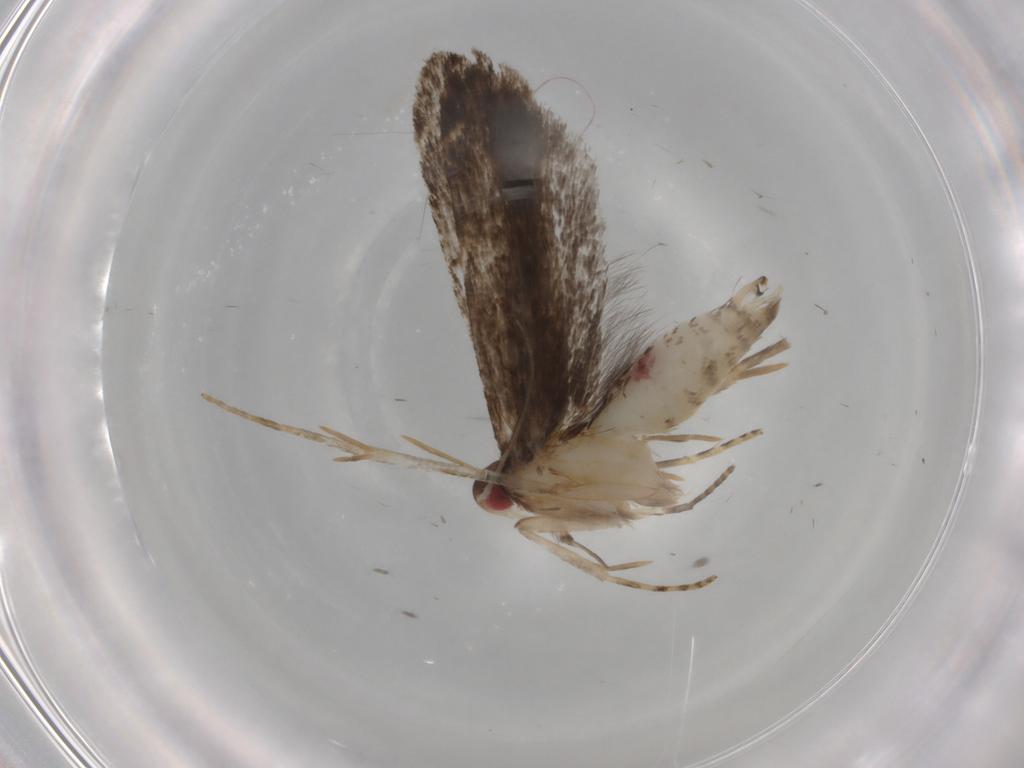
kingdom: Animalia
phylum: Arthropoda
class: Insecta
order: Lepidoptera
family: Gelechiidae
